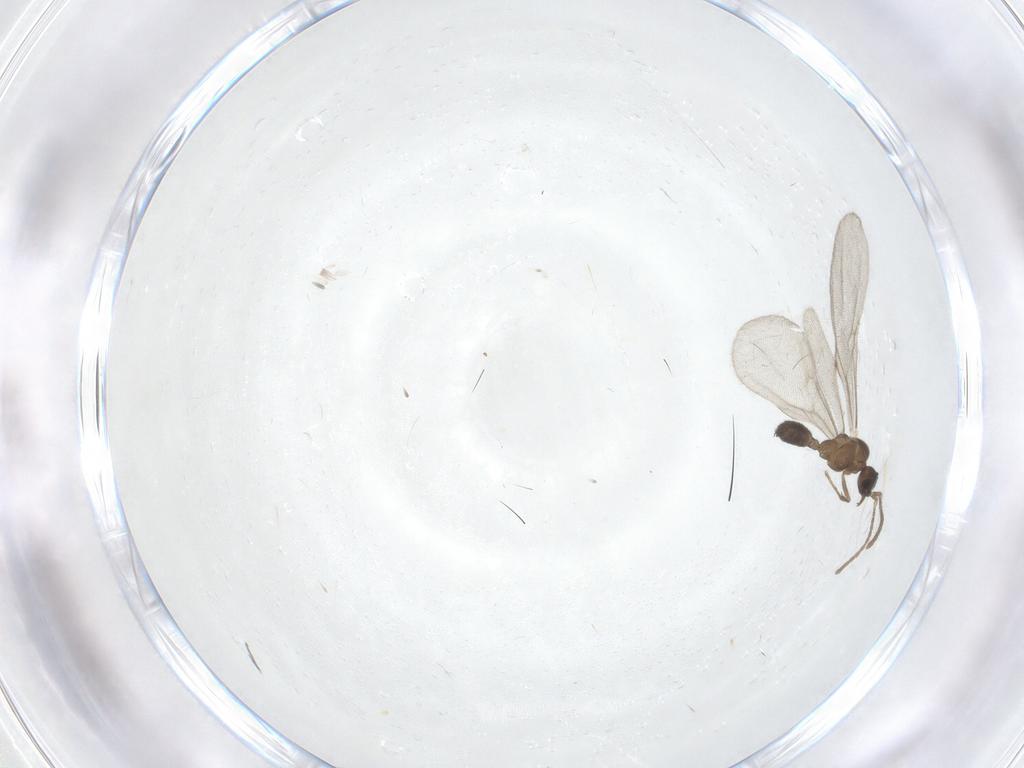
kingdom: Animalia
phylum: Arthropoda
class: Insecta
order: Hymenoptera
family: Formicidae
